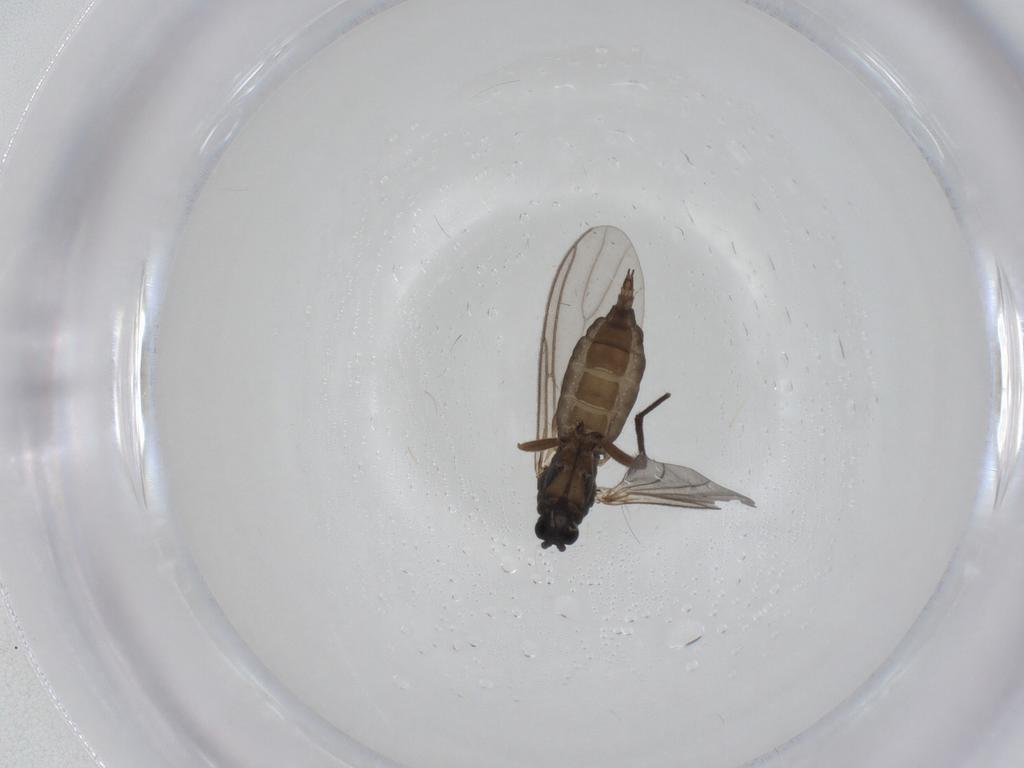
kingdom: Animalia
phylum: Arthropoda
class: Insecta
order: Diptera
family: Sciaridae
